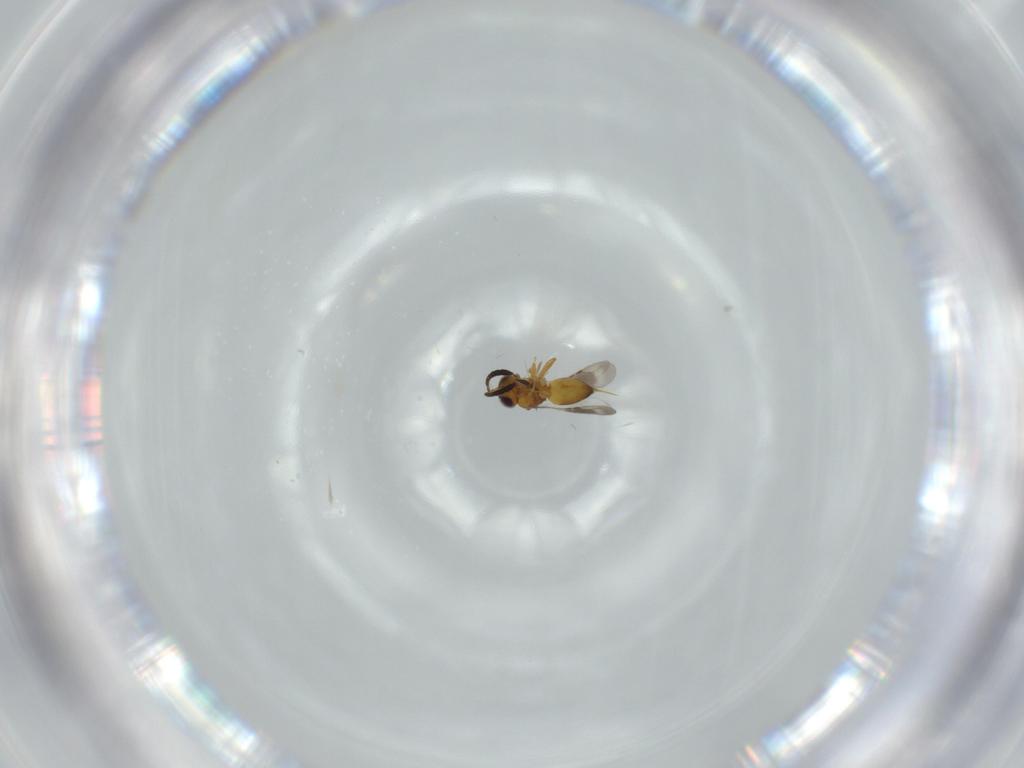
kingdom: Animalia
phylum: Arthropoda
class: Insecta
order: Hymenoptera
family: Figitidae
